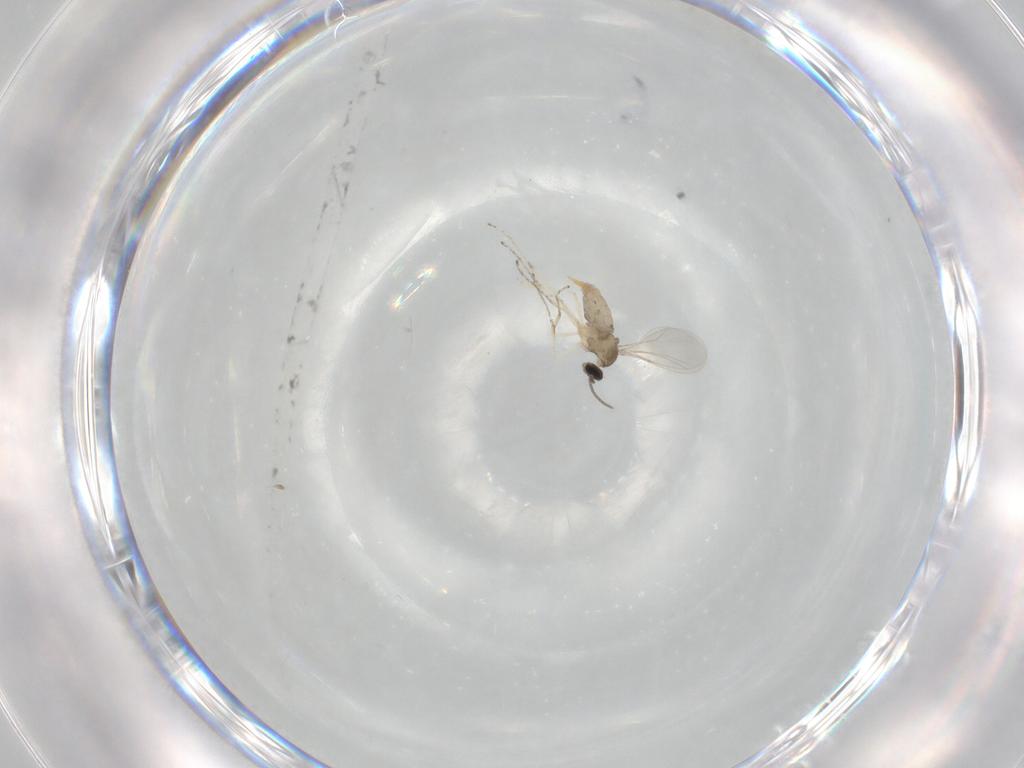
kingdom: Animalia
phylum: Arthropoda
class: Insecta
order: Diptera
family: Cecidomyiidae
